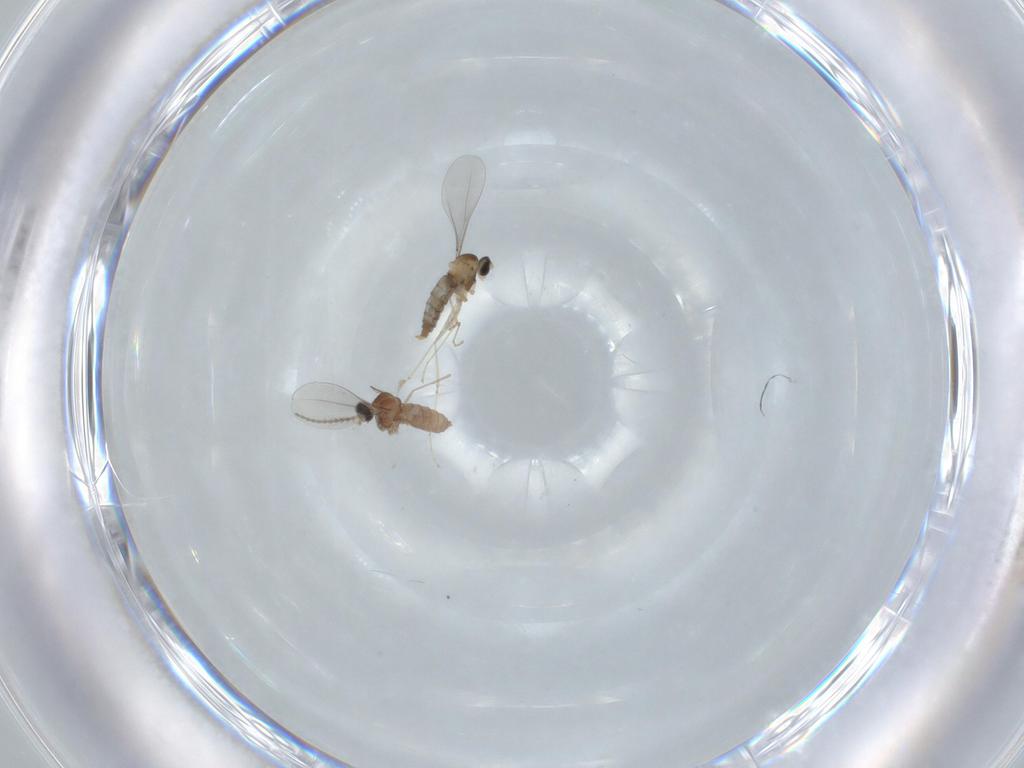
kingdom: Animalia
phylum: Arthropoda
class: Insecta
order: Diptera
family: Cecidomyiidae
